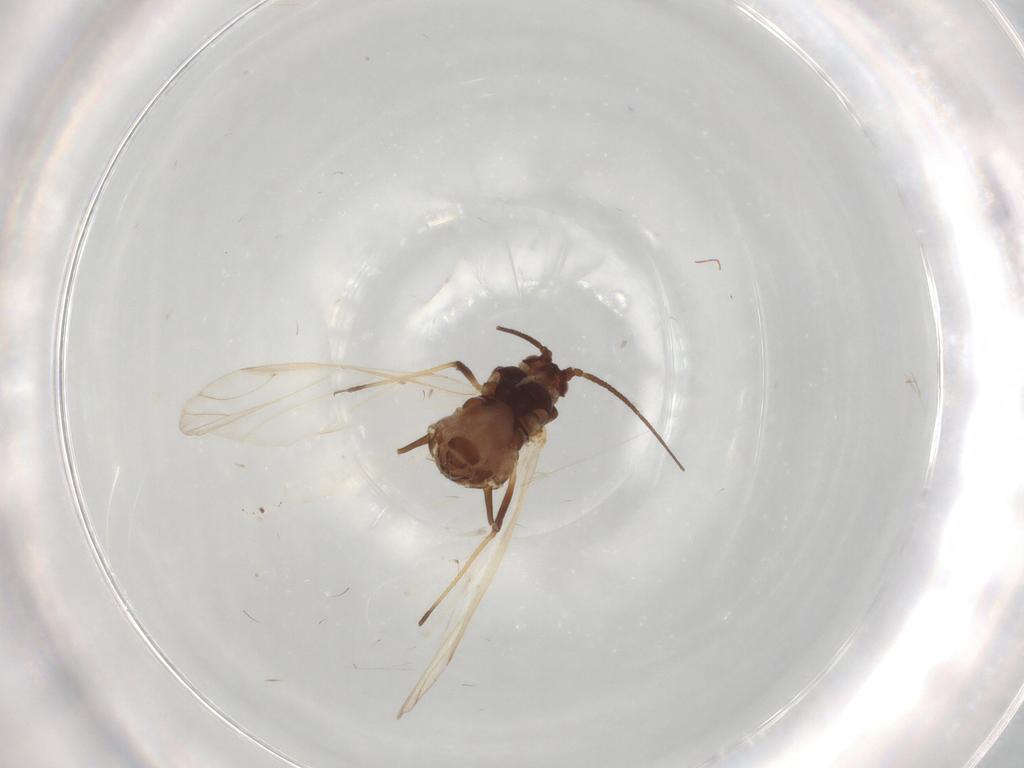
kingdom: Animalia
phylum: Arthropoda
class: Insecta
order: Hemiptera
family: Aphididae
